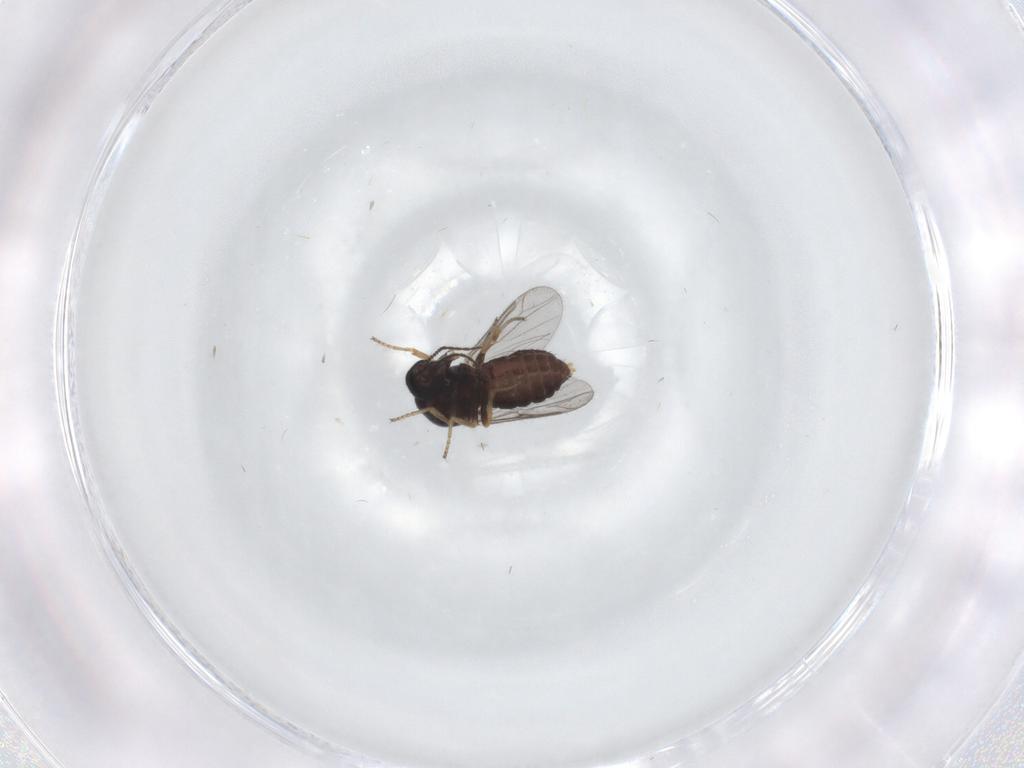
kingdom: Animalia
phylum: Arthropoda
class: Insecta
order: Diptera
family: Ceratopogonidae
